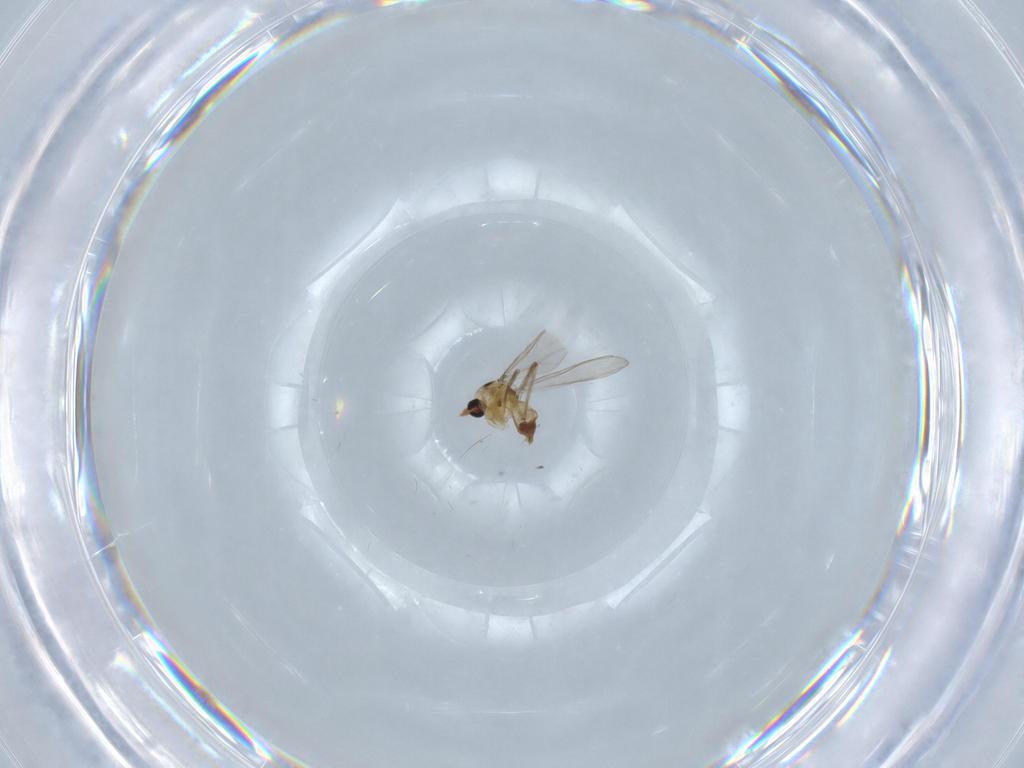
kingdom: Animalia
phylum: Arthropoda
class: Insecta
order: Diptera
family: Chironomidae
